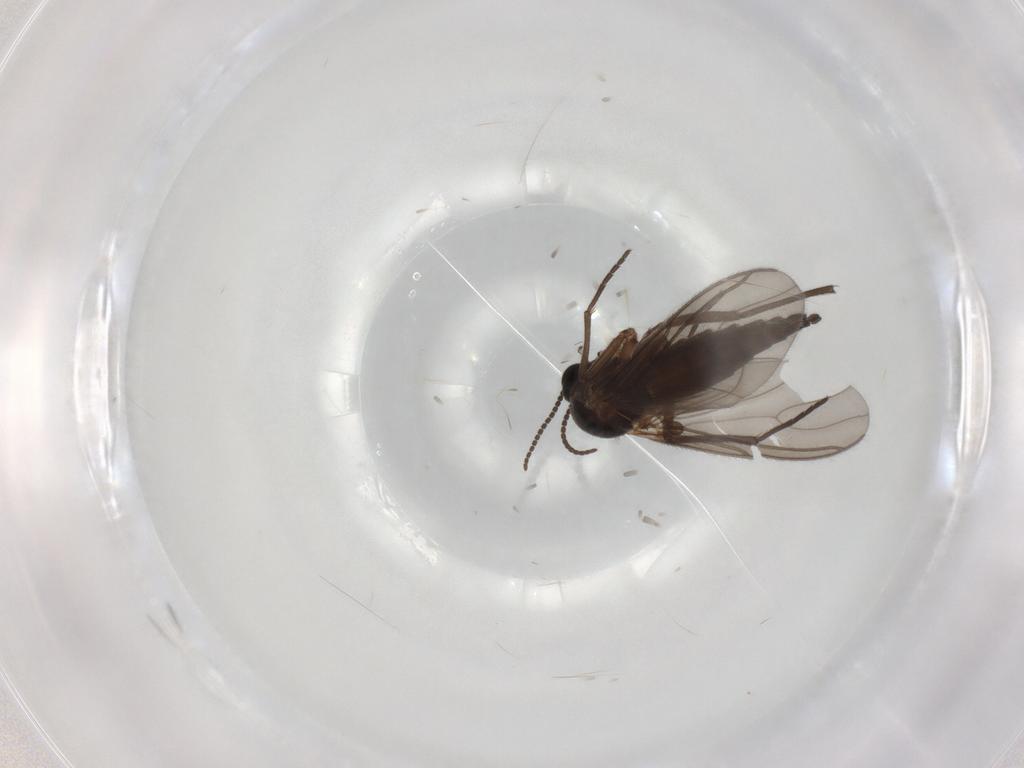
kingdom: Animalia
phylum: Arthropoda
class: Insecta
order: Diptera
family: Sciaridae
